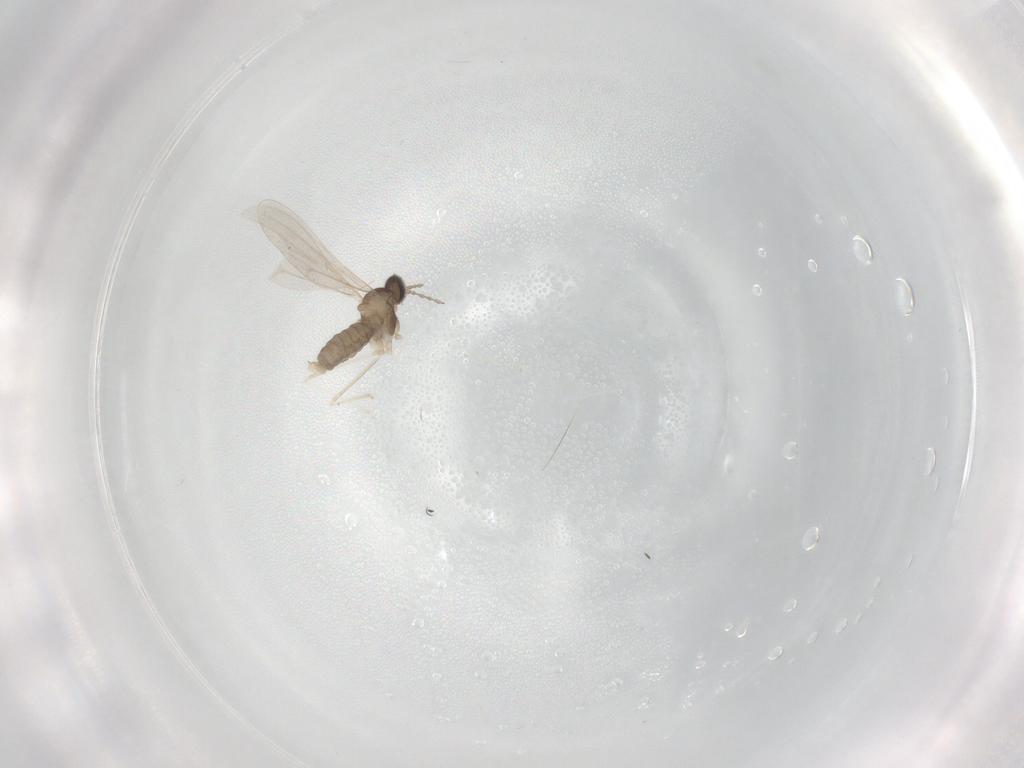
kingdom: Animalia
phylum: Arthropoda
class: Insecta
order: Diptera
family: Cecidomyiidae
